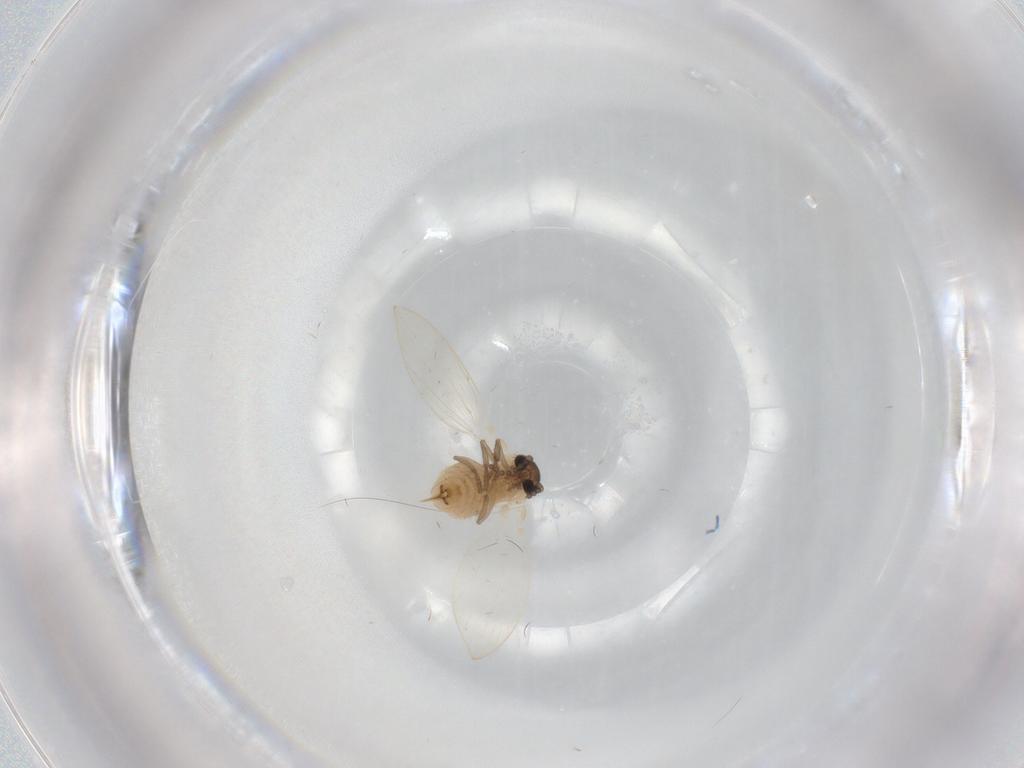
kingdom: Animalia
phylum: Arthropoda
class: Insecta
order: Diptera
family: Psychodidae
